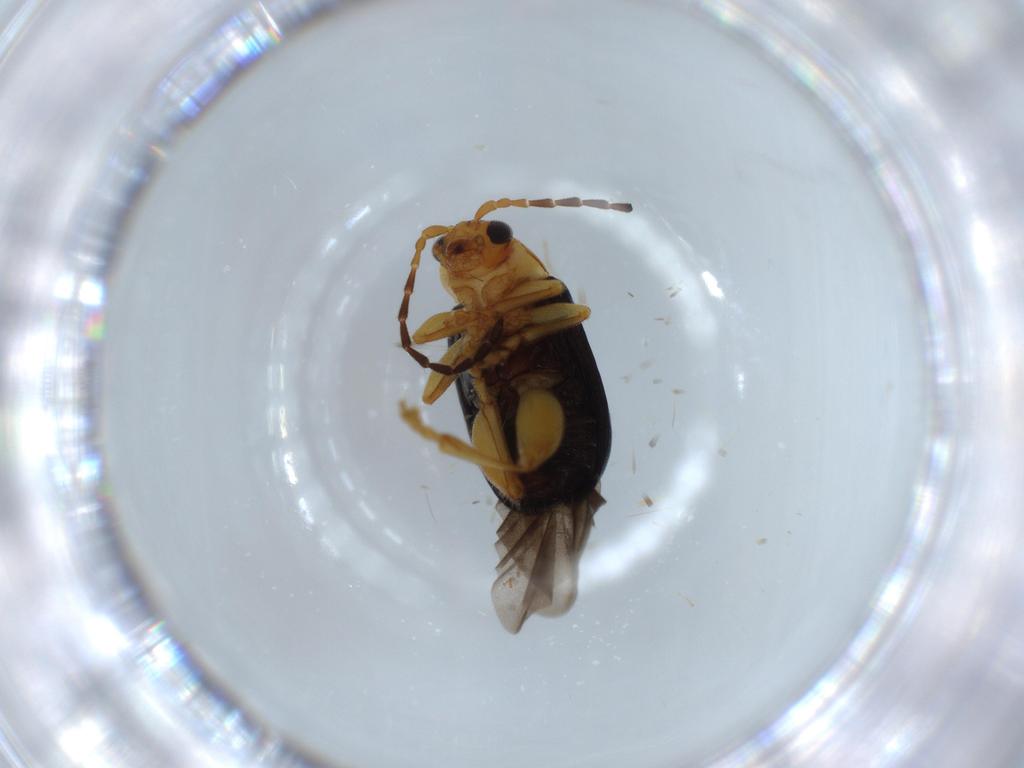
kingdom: Animalia
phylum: Arthropoda
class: Insecta
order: Coleoptera
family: Chrysomelidae
